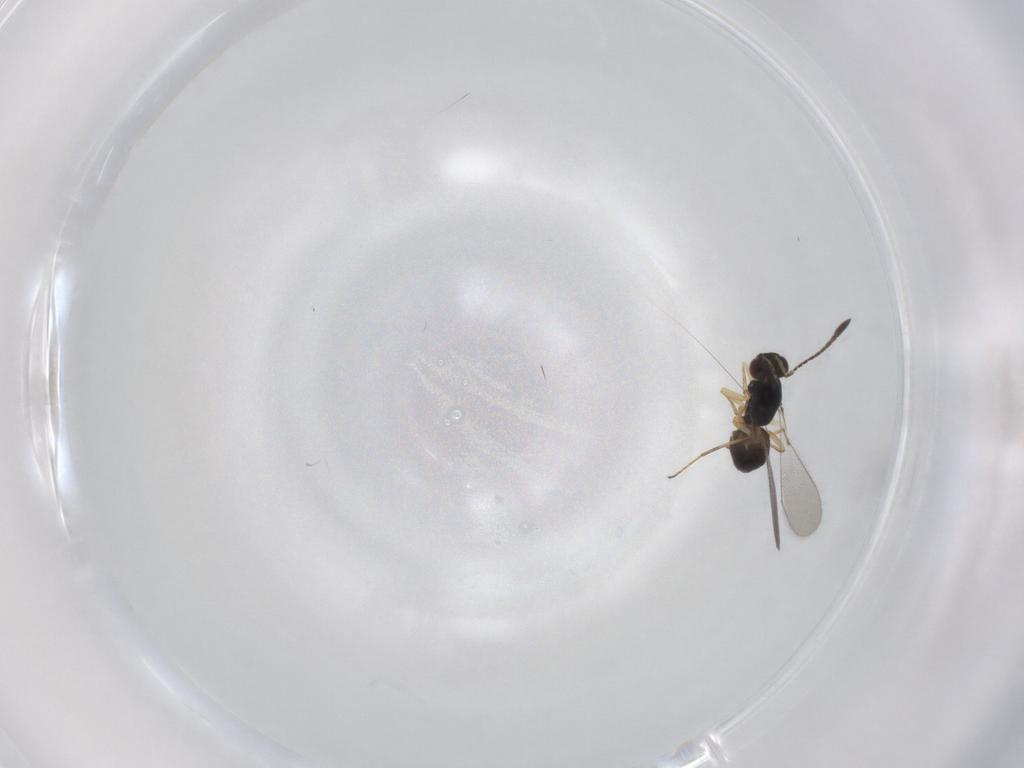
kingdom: Animalia
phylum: Arthropoda
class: Insecta
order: Hymenoptera
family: Mymaridae
